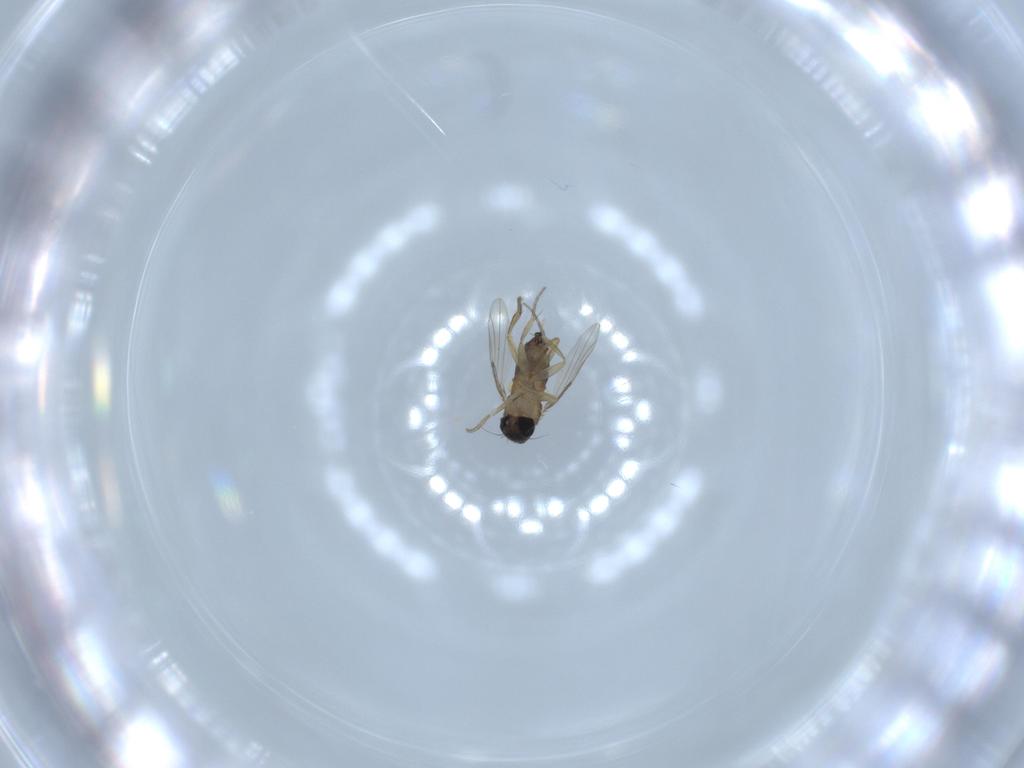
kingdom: Animalia
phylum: Arthropoda
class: Insecta
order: Diptera
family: Phoridae
